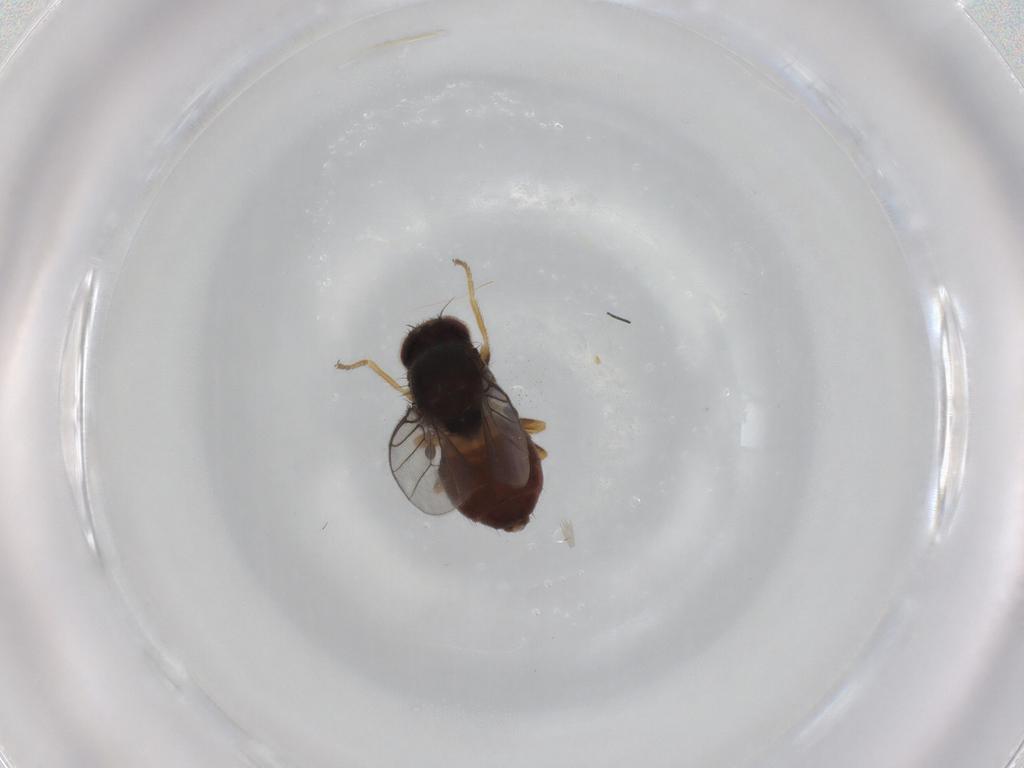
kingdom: Animalia
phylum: Arthropoda
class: Insecta
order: Diptera
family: Chloropidae
